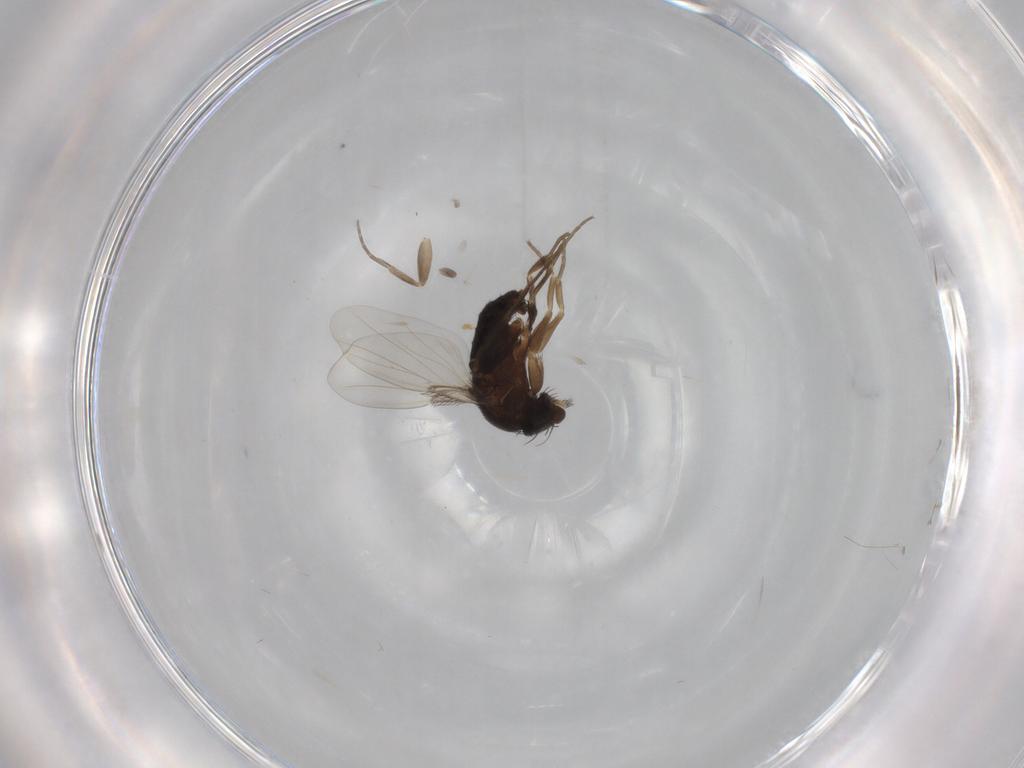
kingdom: Animalia
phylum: Arthropoda
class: Insecta
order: Diptera
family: Phoridae
